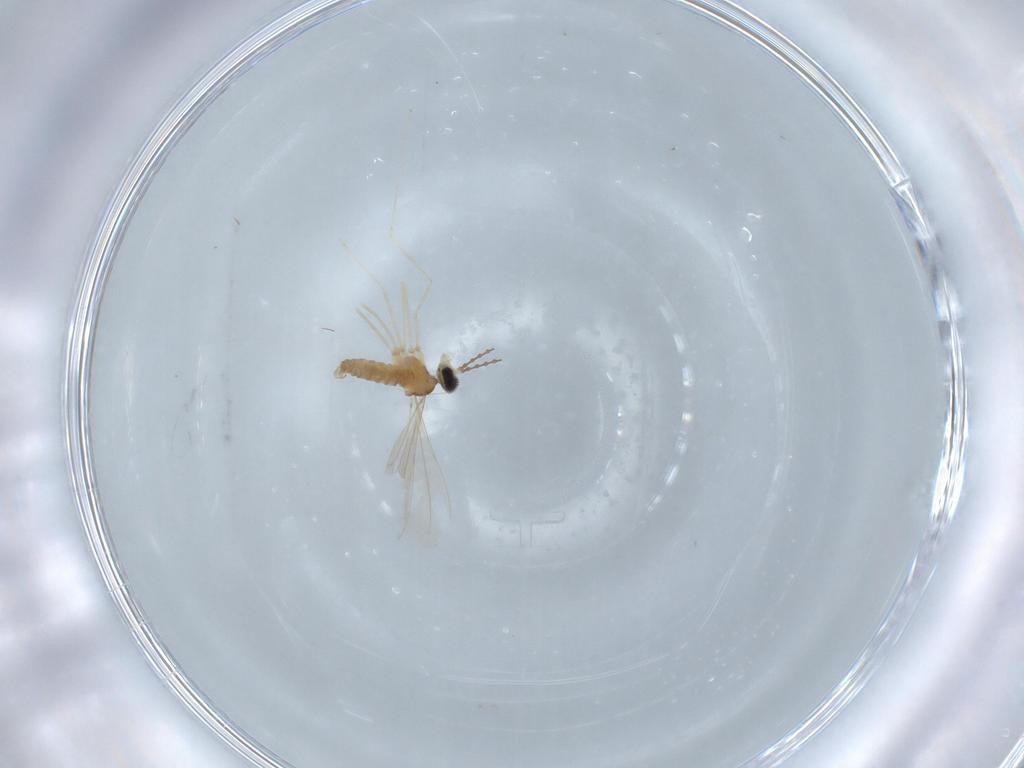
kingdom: Animalia
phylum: Arthropoda
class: Insecta
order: Diptera
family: Cecidomyiidae
